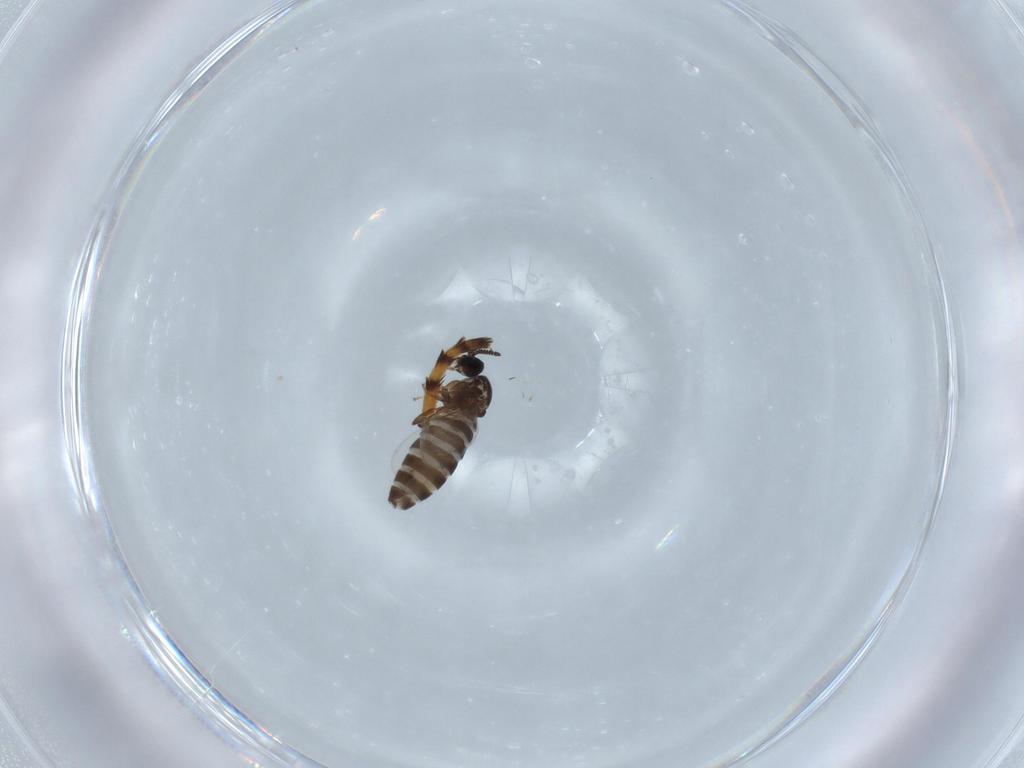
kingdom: Animalia
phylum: Arthropoda
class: Insecta
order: Diptera
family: Scatopsidae
